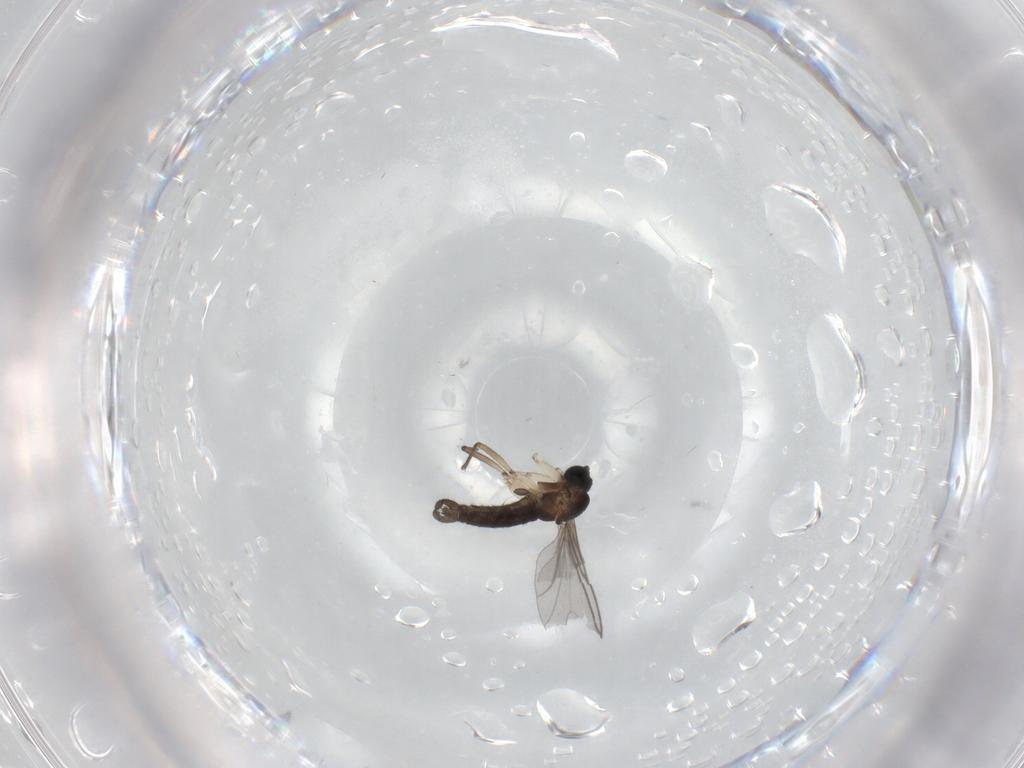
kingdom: Animalia
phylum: Arthropoda
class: Insecta
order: Diptera
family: Sciaridae
